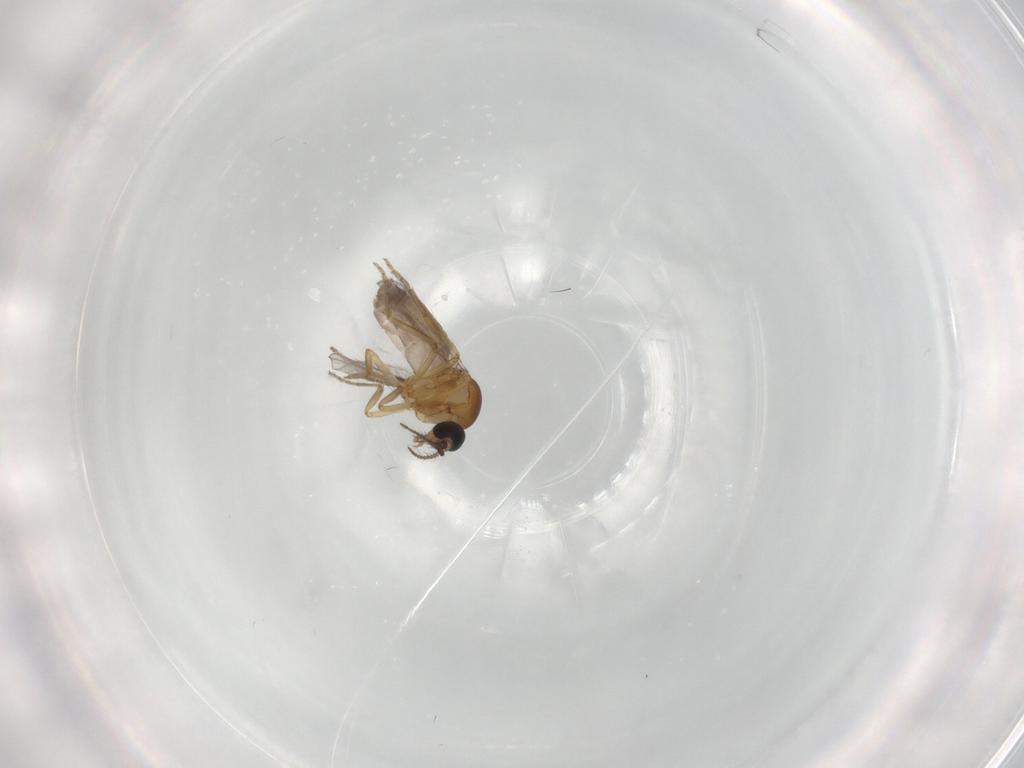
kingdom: Animalia
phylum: Arthropoda
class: Insecta
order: Diptera
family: Ceratopogonidae
